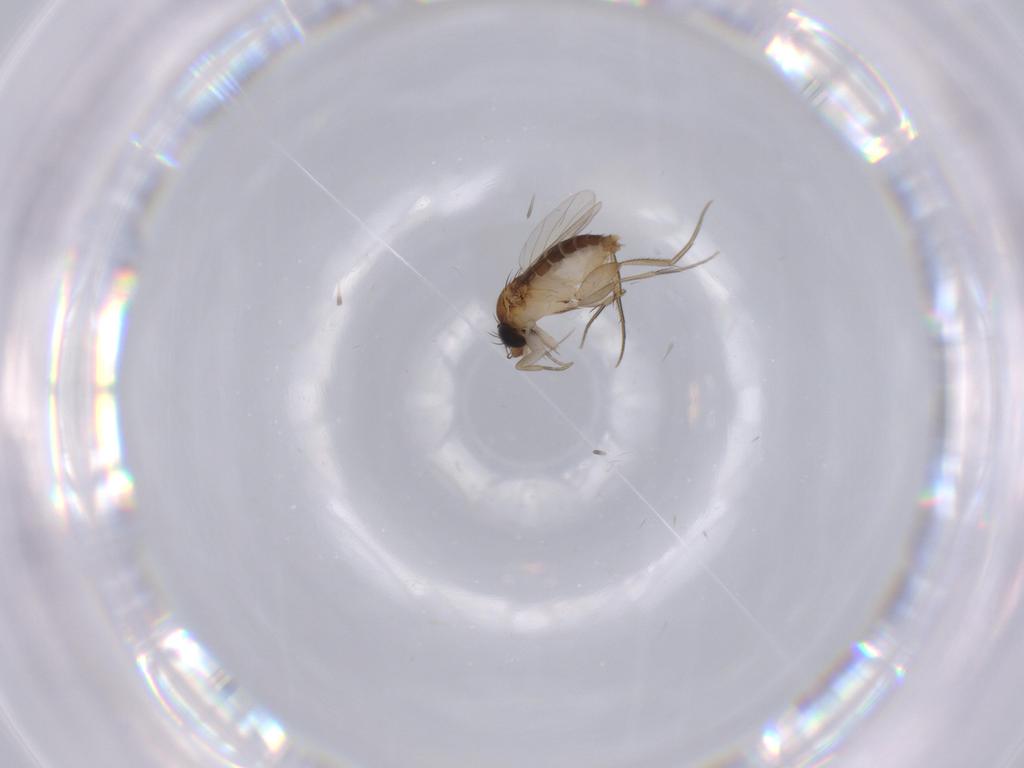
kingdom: Animalia
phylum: Arthropoda
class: Insecta
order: Diptera
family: Phoridae
